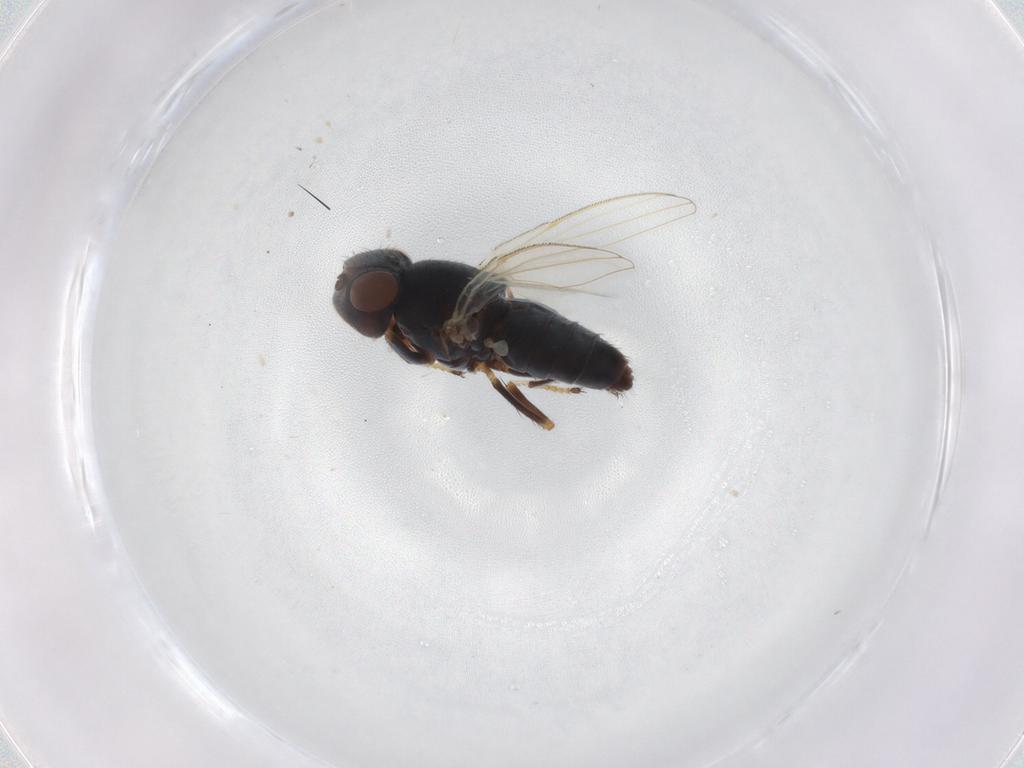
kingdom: Animalia
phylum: Arthropoda
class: Insecta
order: Diptera
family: Ephydridae
